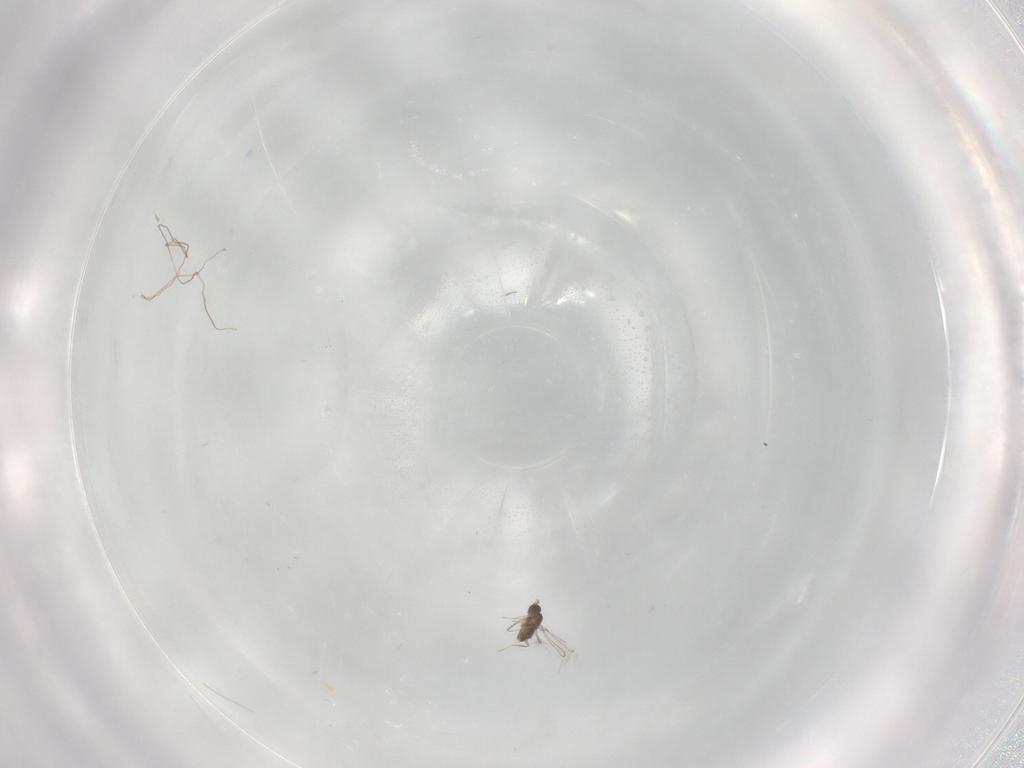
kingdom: Animalia
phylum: Arthropoda
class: Insecta
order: Hymenoptera
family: Mymaridae
